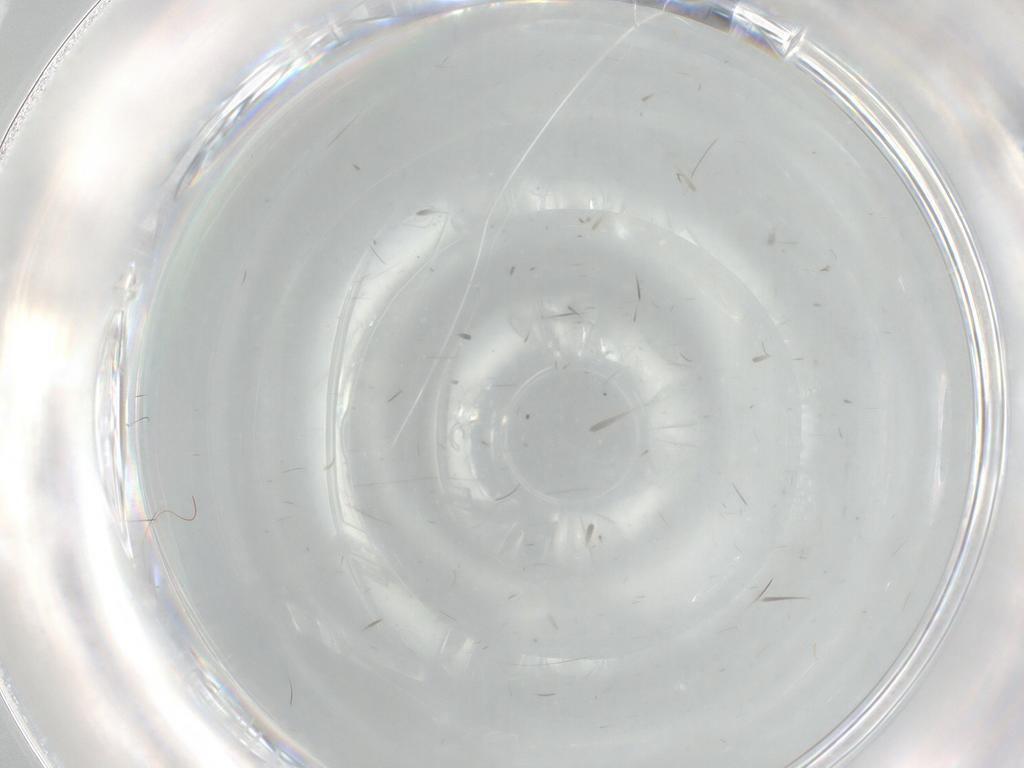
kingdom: Animalia
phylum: Arthropoda
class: Insecta
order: Diptera
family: Psychodidae
